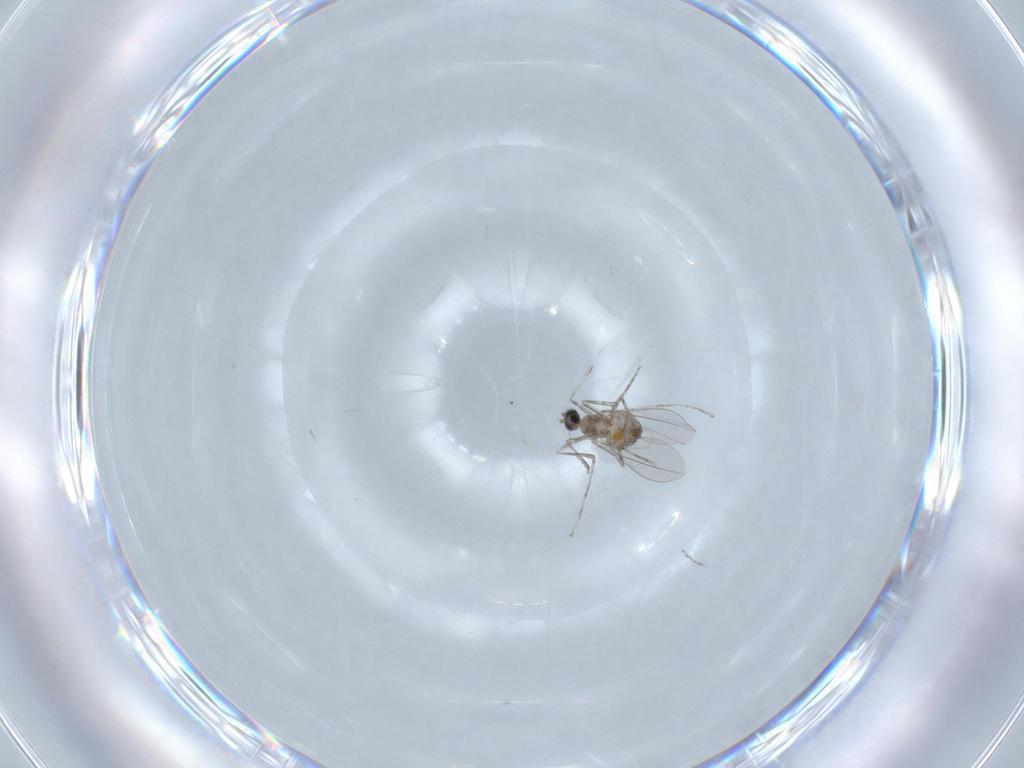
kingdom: Animalia
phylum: Arthropoda
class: Insecta
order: Diptera
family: Cecidomyiidae
